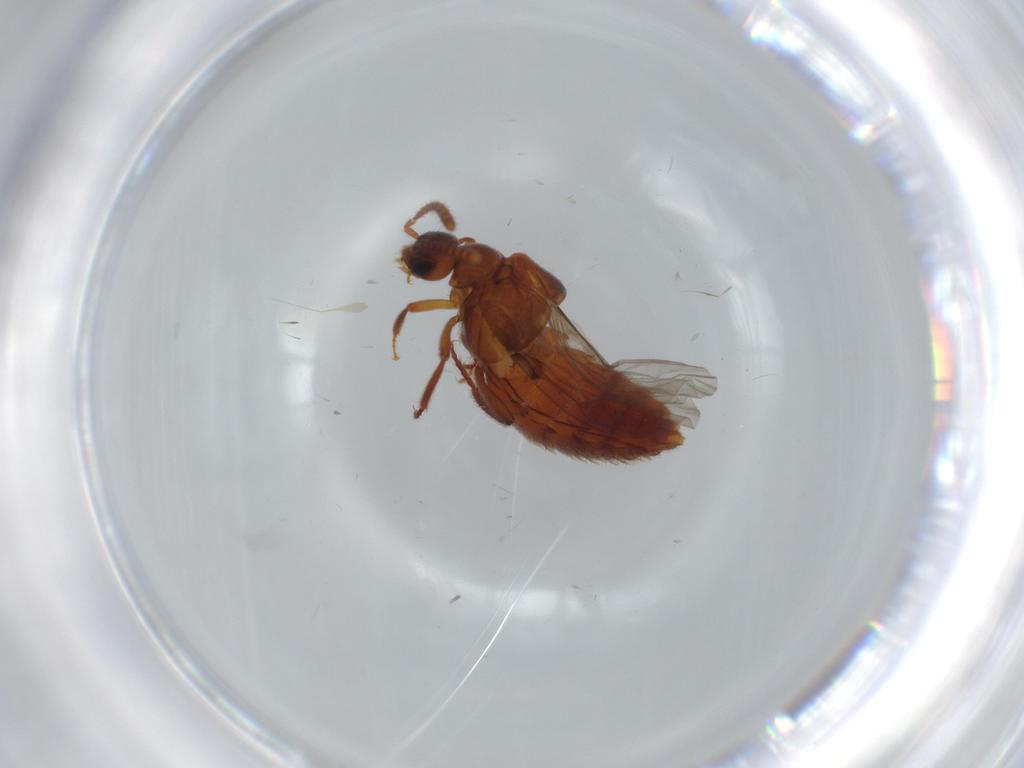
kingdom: Animalia
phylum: Arthropoda
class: Insecta
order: Coleoptera
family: Staphylinidae
